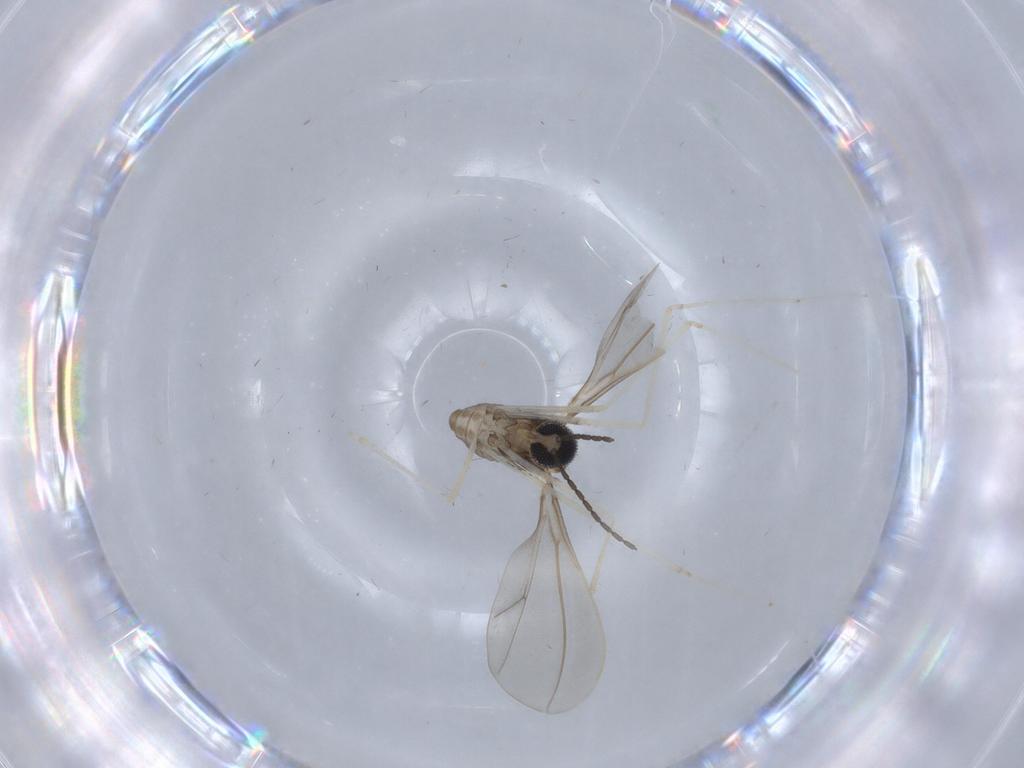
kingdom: Animalia
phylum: Arthropoda
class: Insecta
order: Diptera
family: Cecidomyiidae
